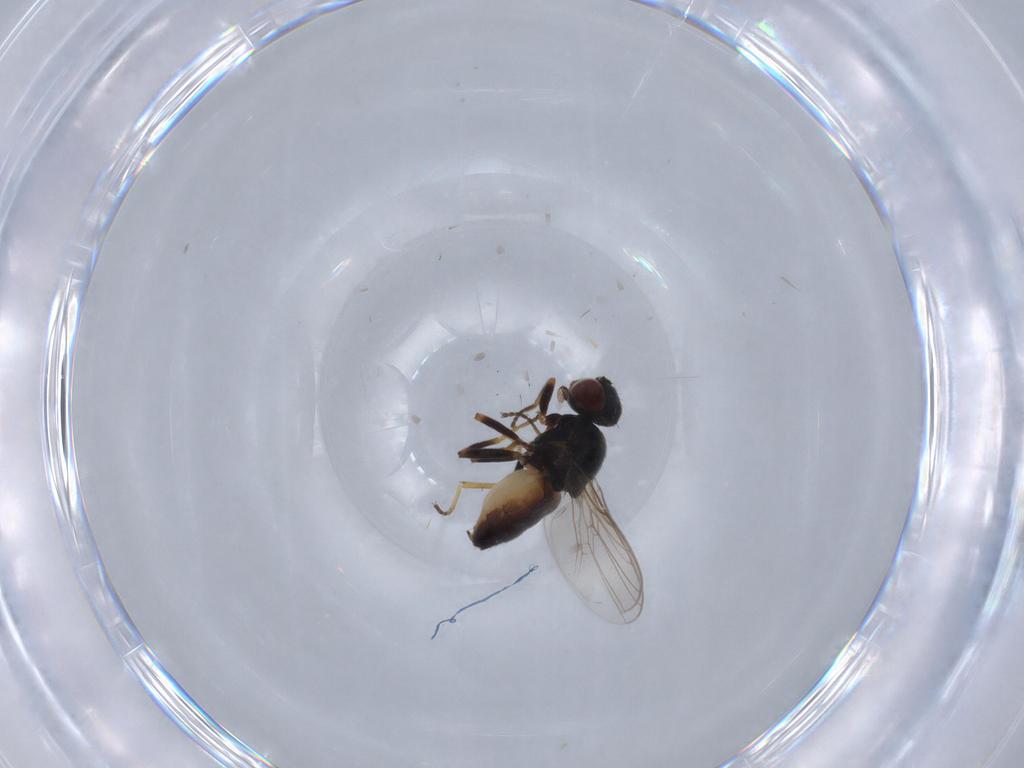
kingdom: Animalia
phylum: Arthropoda
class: Insecta
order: Diptera
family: Chloropidae
